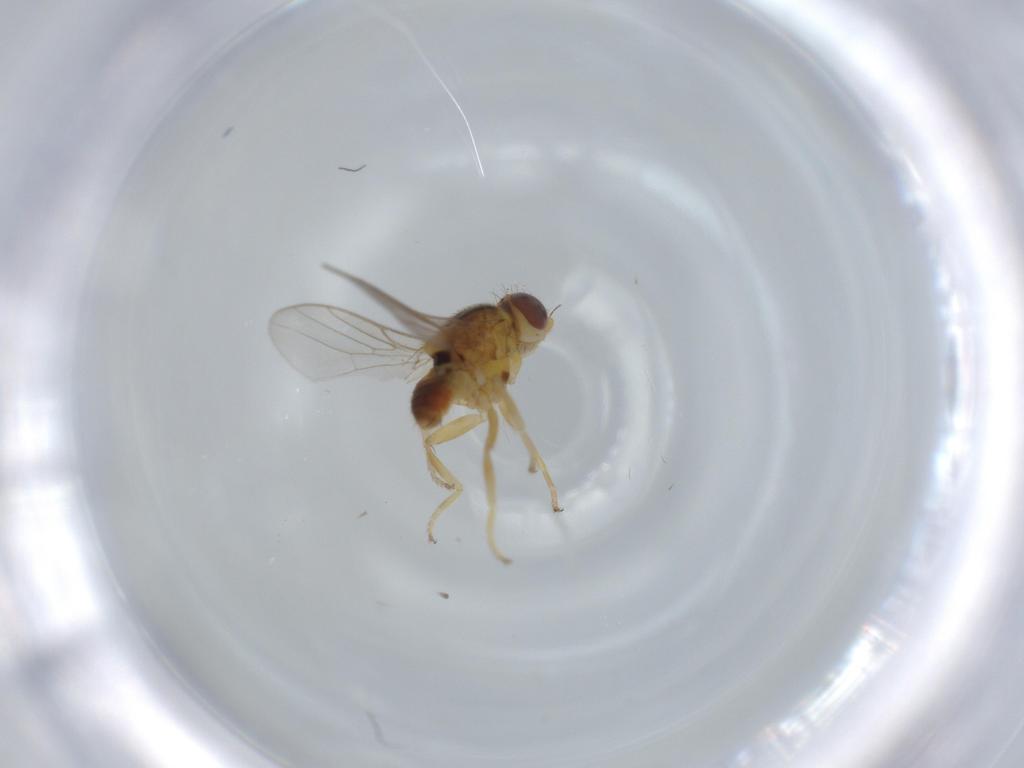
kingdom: Animalia
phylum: Arthropoda
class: Insecta
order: Diptera
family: Chloropidae
